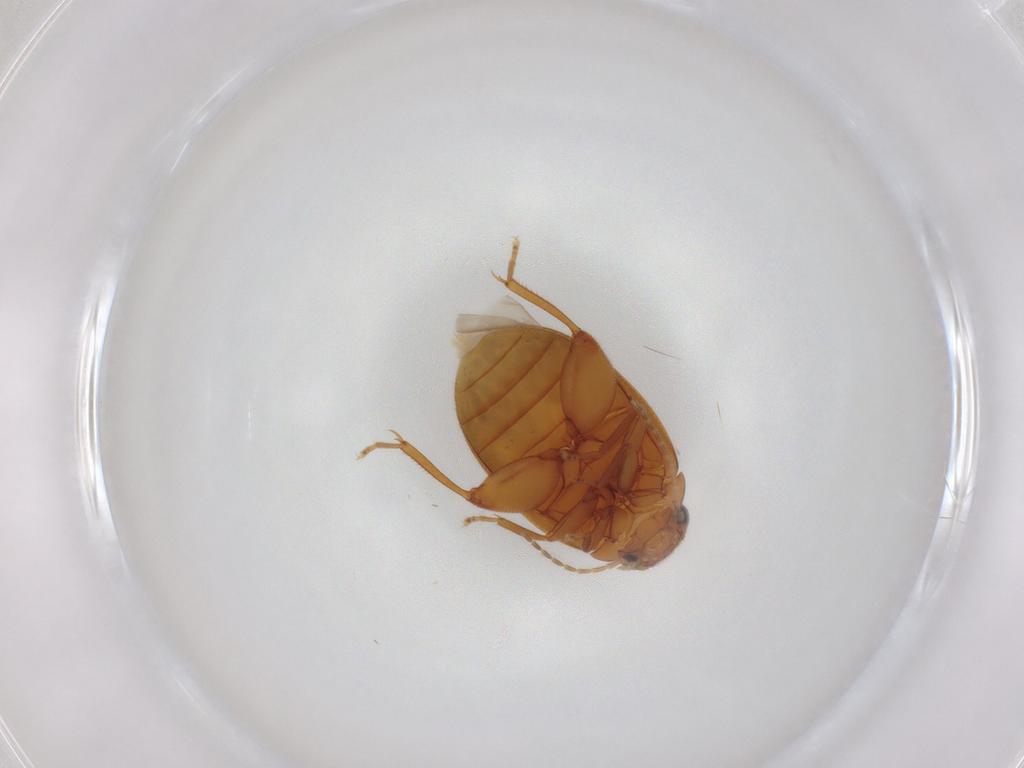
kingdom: Animalia
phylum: Arthropoda
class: Insecta
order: Coleoptera
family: Scirtidae
